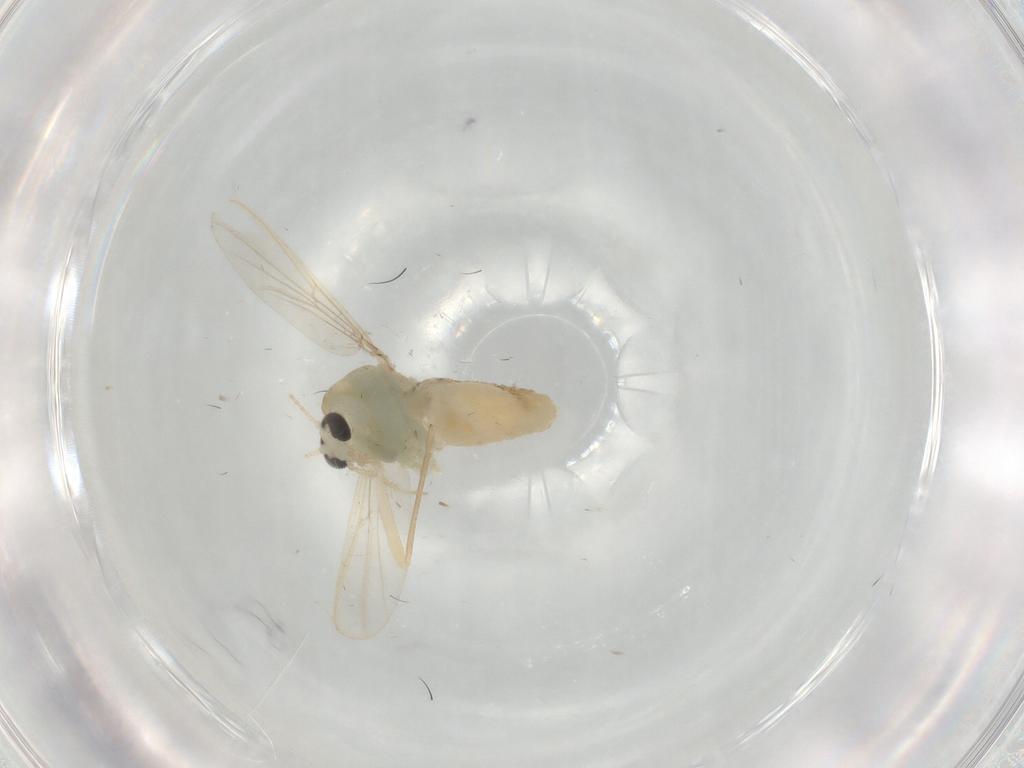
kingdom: Animalia
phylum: Arthropoda
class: Insecta
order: Diptera
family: Chironomidae
